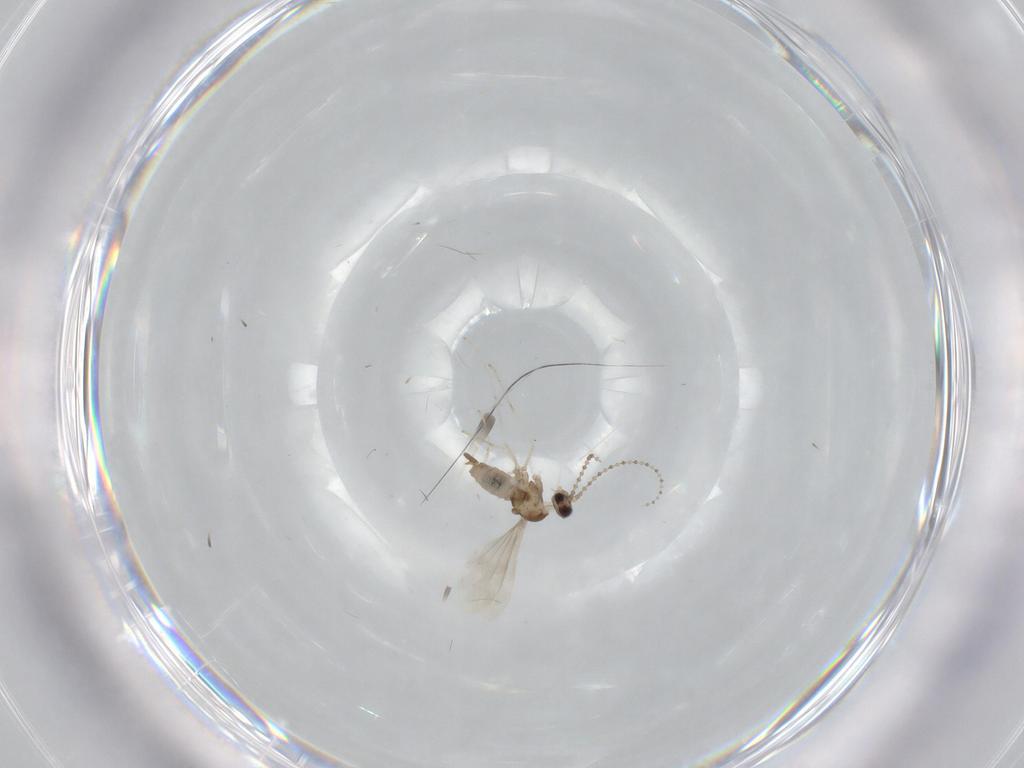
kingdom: Animalia
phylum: Arthropoda
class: Insecta
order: Diptera
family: Cecidomyiidae
